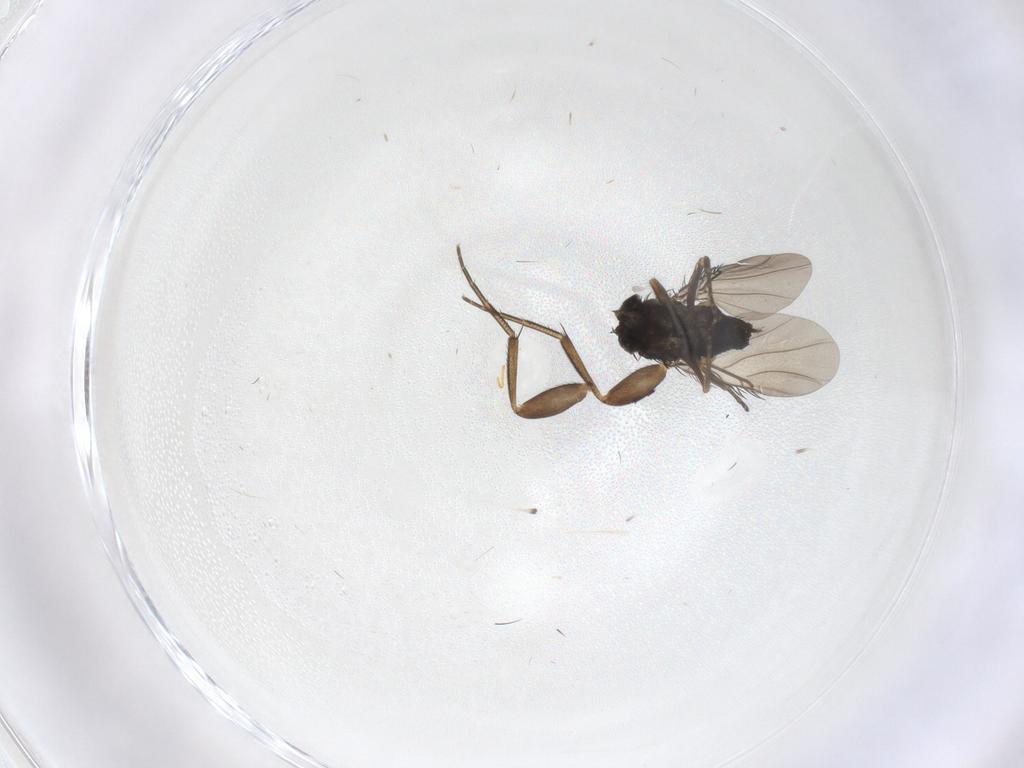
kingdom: Animalia
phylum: Arthropoda
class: Insecta
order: Diptera
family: Phoridae
